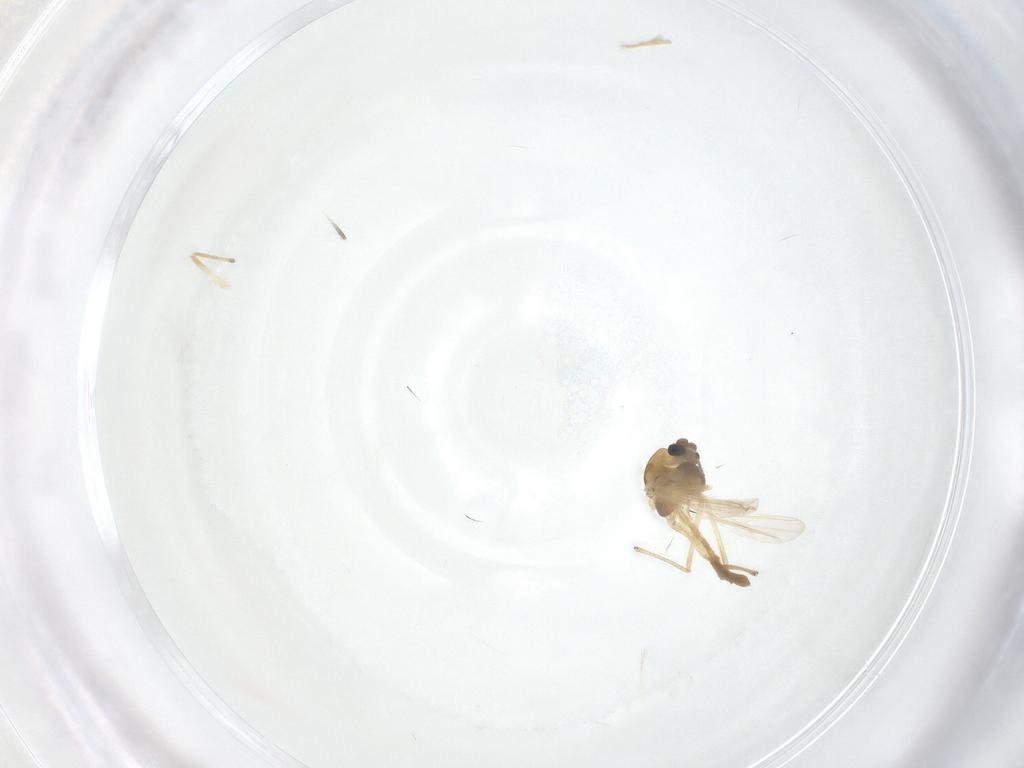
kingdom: Animalia
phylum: Arthropoda
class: Insecta
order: Diptera
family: Chironomidae
